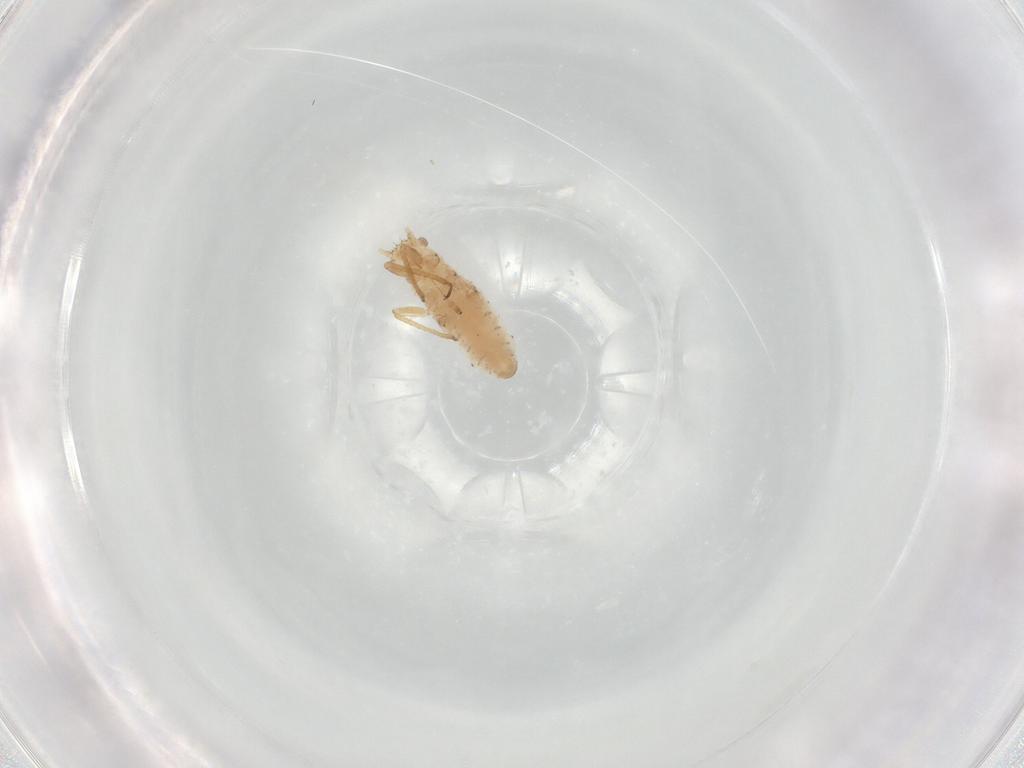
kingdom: Animalia
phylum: Arthropoda
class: Insecta
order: Hemiptera
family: Aphididae
